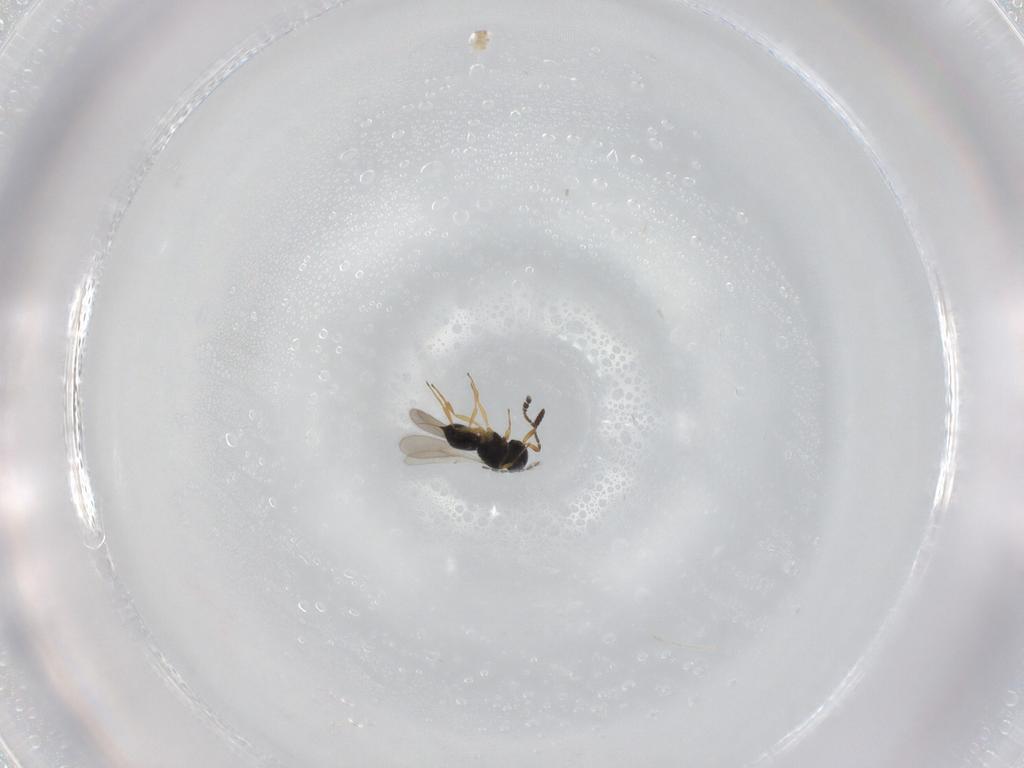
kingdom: Animalia
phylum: Arthropoda
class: Insecta
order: Hymenoptera
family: Scelionidae
